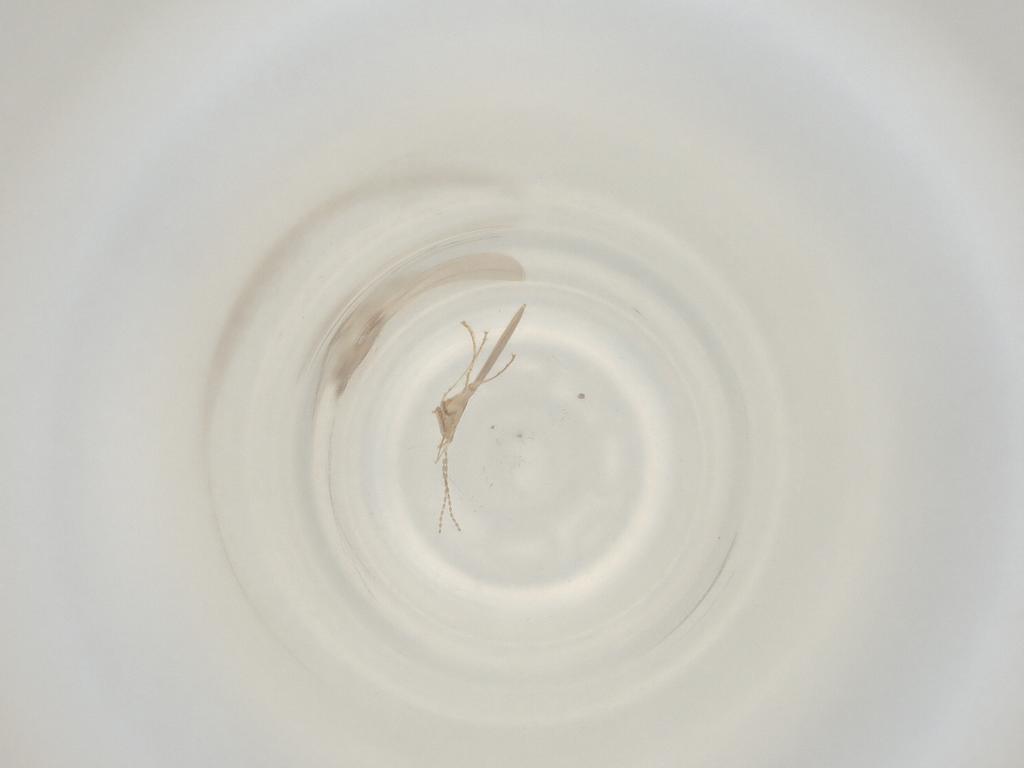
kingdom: Animalia
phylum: Arthropoda
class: Insecta
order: Diptera
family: Cecidomyiidae
